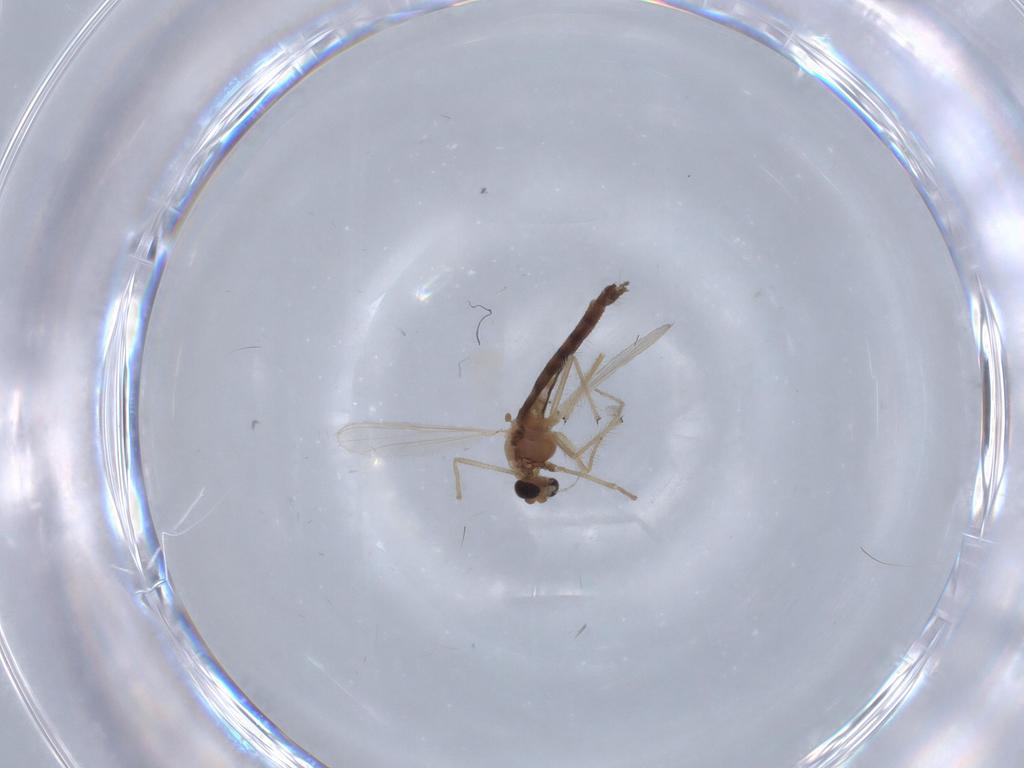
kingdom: Animalia
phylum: Arthropoda
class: Insecta
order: Diptera
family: Chironomidae
